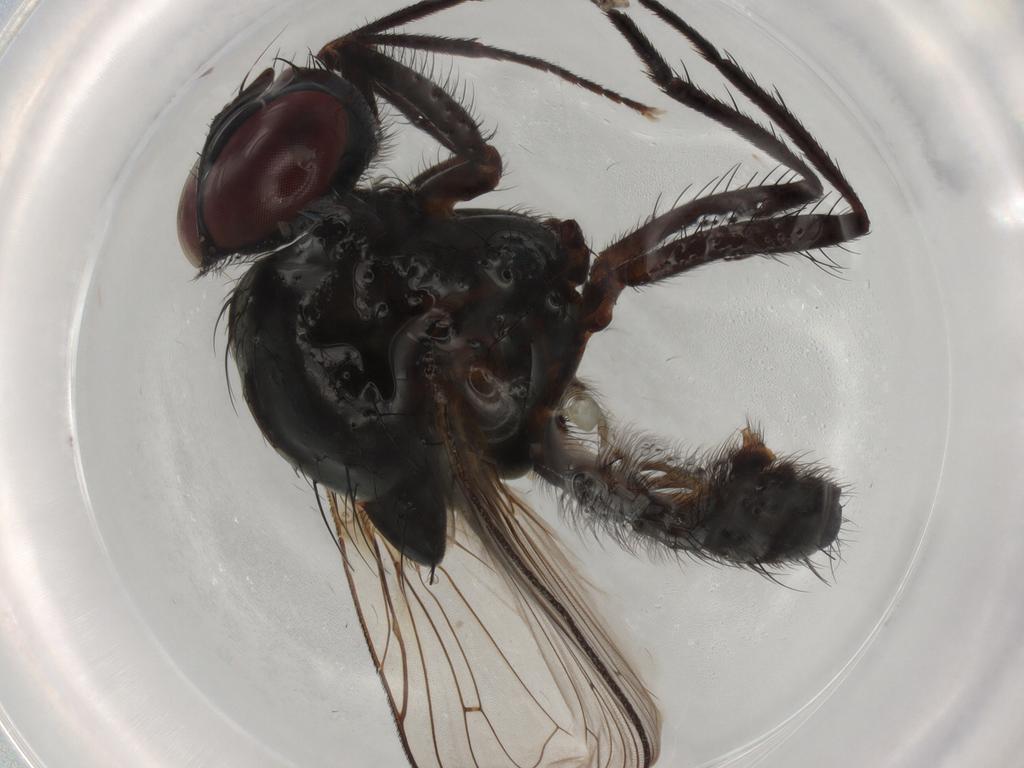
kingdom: Animalia
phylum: Arthropoda
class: Insecta
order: Diptera
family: Anthomyiidae
